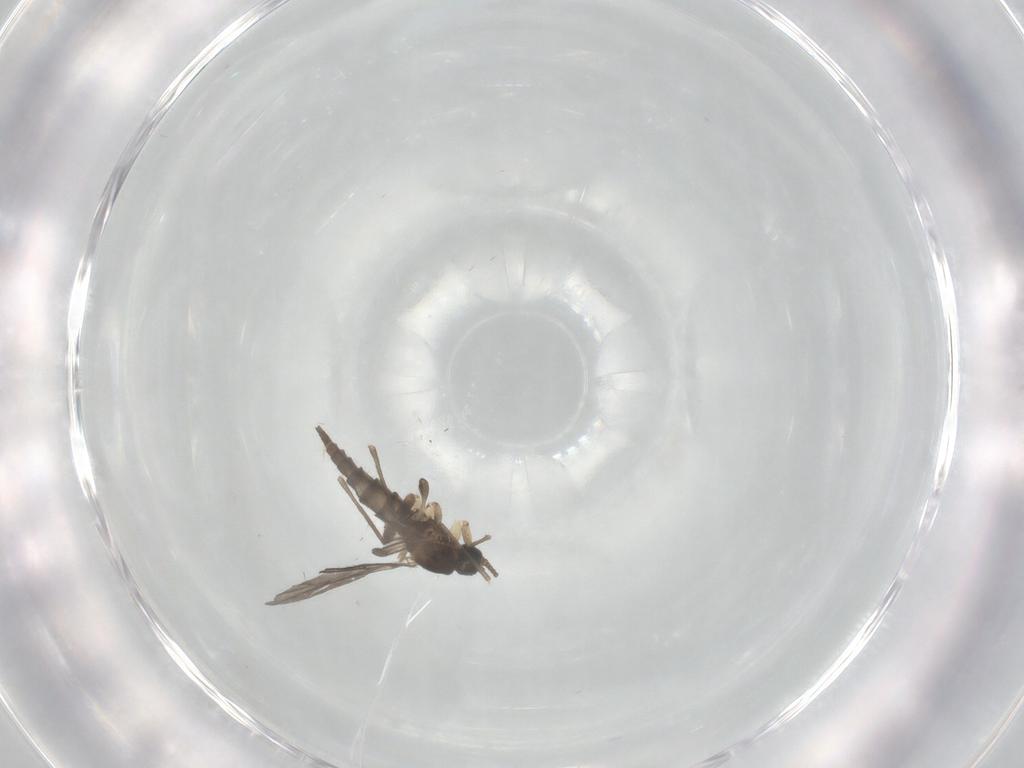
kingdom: Animalia
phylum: Arthropoda
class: Insecta
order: Diptera
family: Sciaridae
